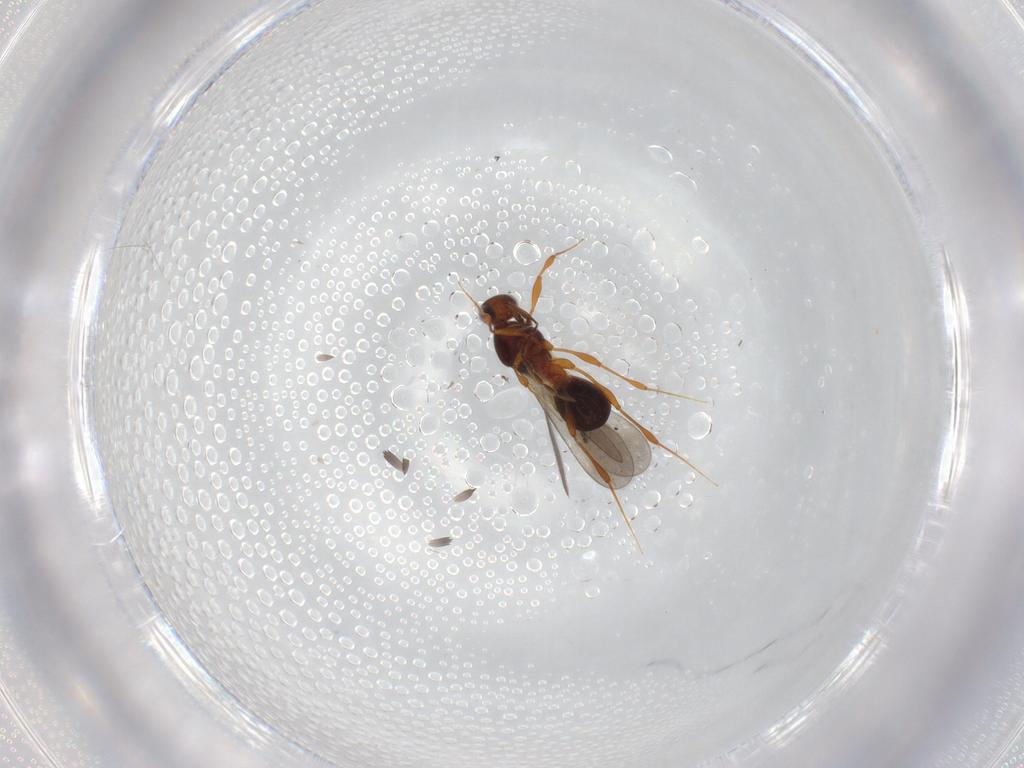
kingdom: Animalia
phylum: Arthropoda
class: Insecta
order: Hymenoptera
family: Platygastridae
